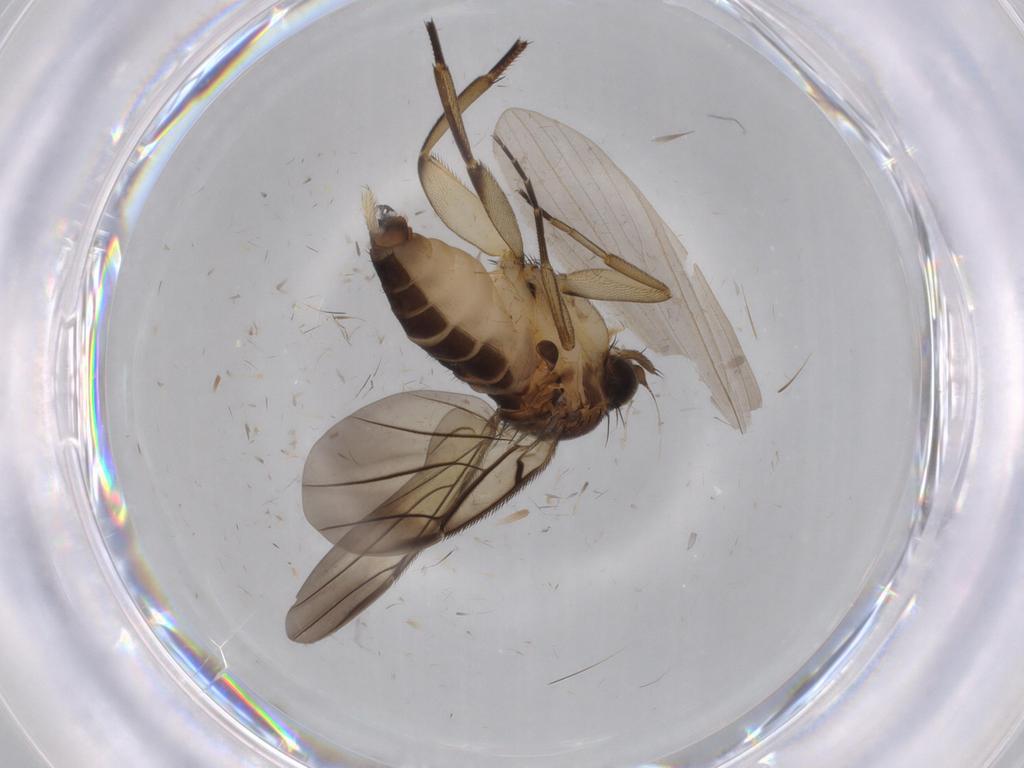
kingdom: Animalia
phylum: Arthropoda
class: Insecta
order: Diptera
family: Limoniidae
